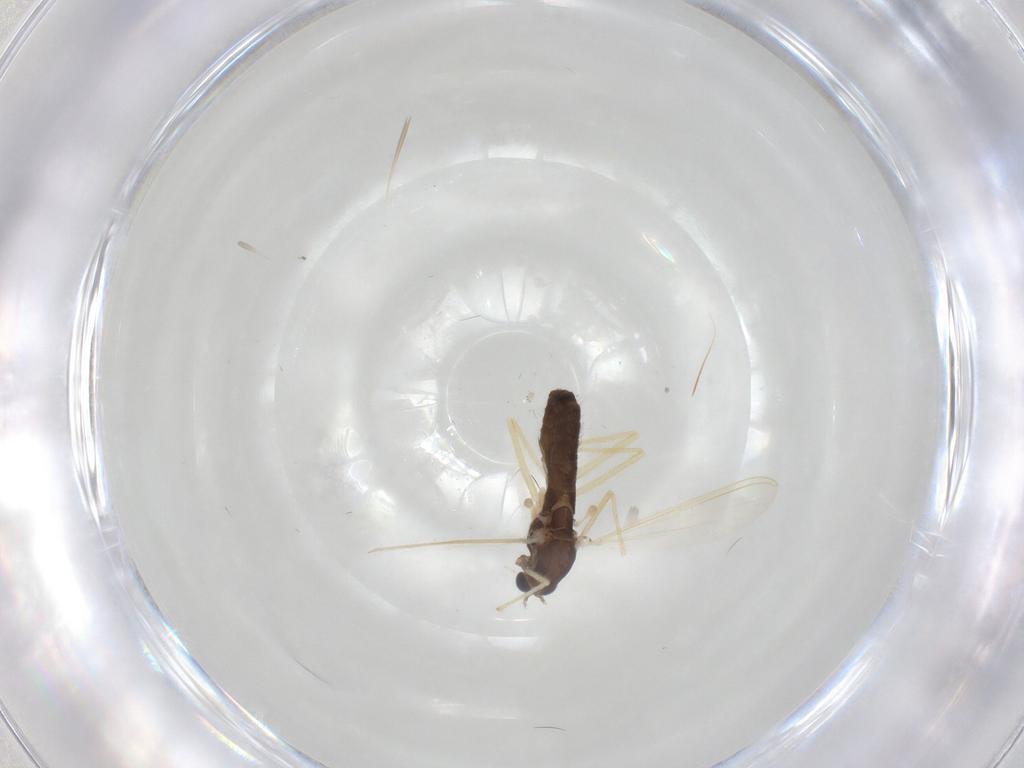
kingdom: Animalia
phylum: Arthropoda
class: Insecta
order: Diptera
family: Chironomidae
